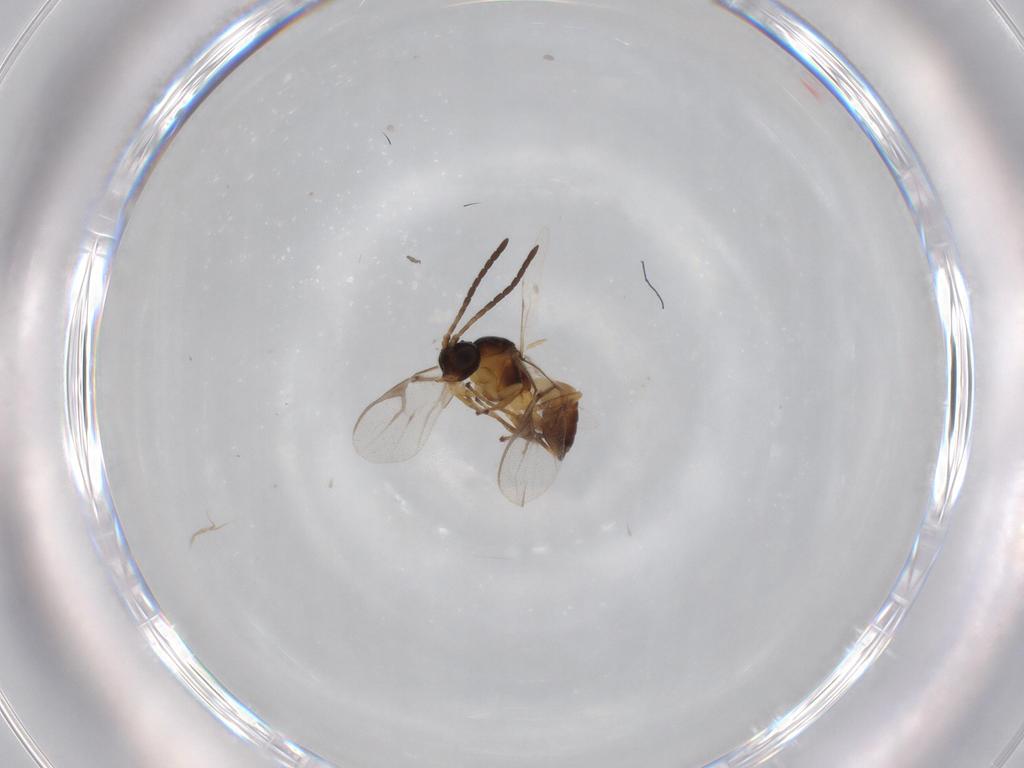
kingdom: Animalia
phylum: Arthropoda
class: Insecta
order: Hymenoptera
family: Braconidae
